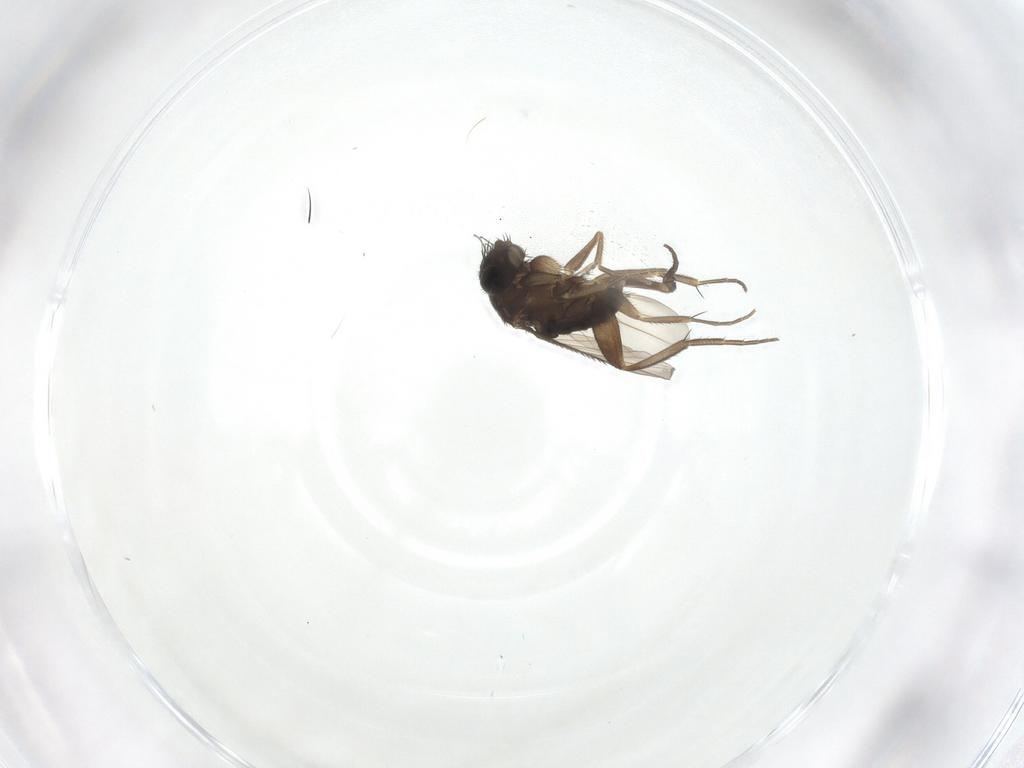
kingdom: Animalia
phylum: Arthropoda
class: Insecta
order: Diptera
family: Phoridae
